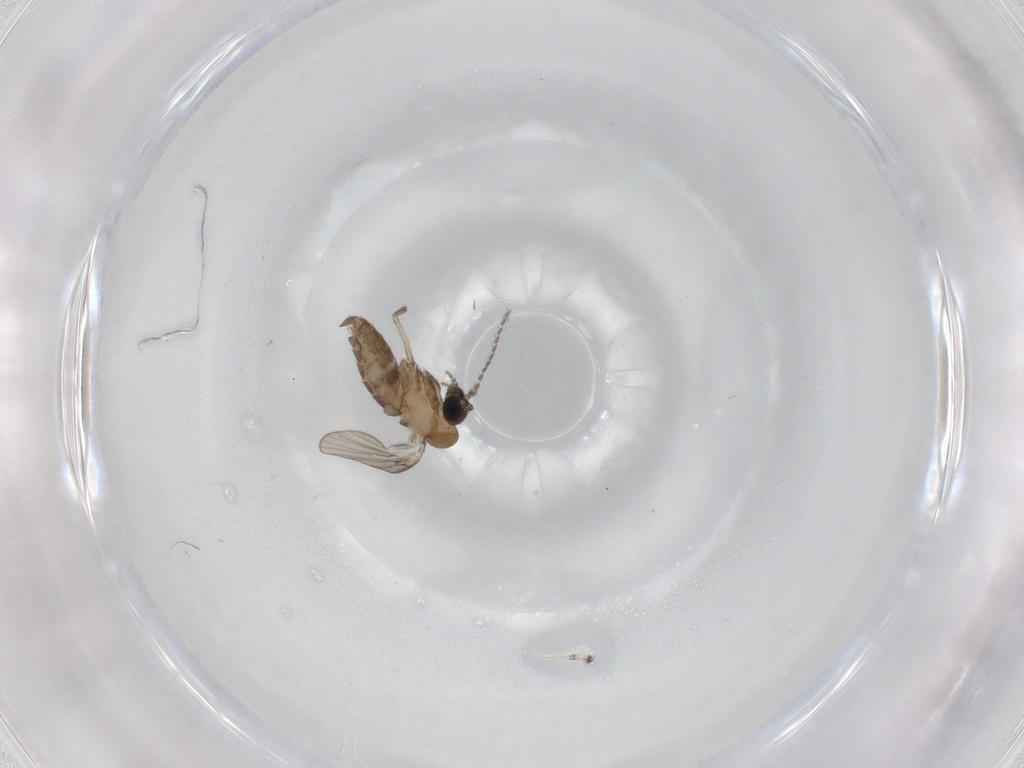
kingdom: Animalia
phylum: Arthropoda
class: Insecta
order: Diptera
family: Psychodidae
